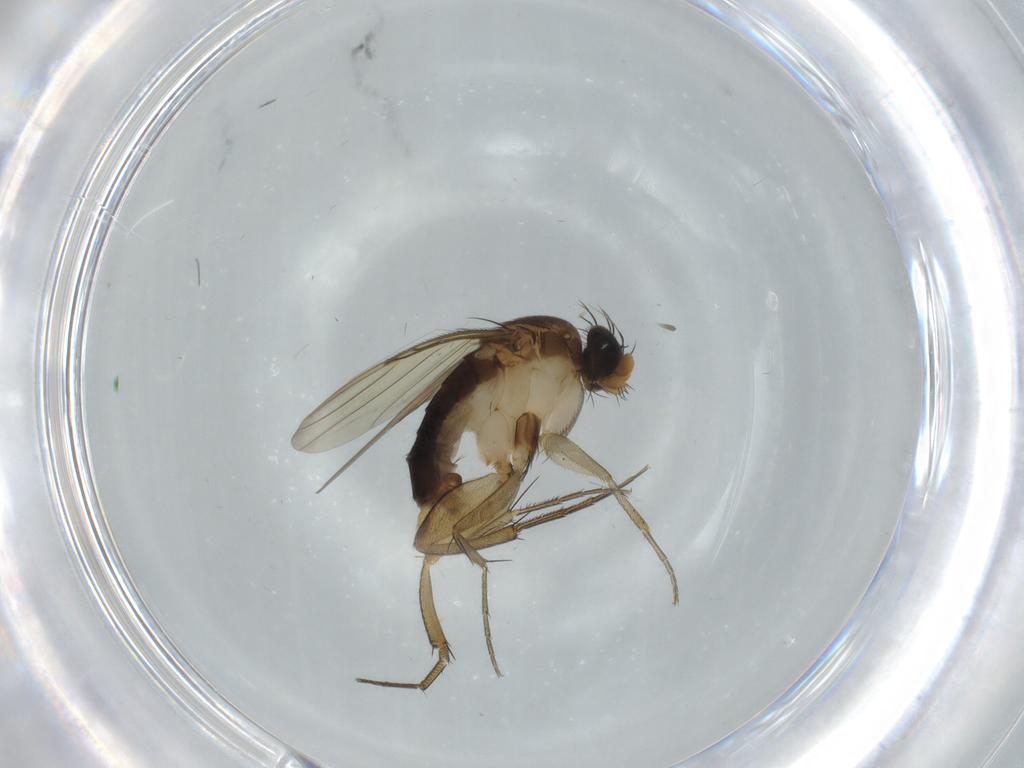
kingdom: Animalia
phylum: Arthropoda
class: Insecta
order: Diptera
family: Phoridae
